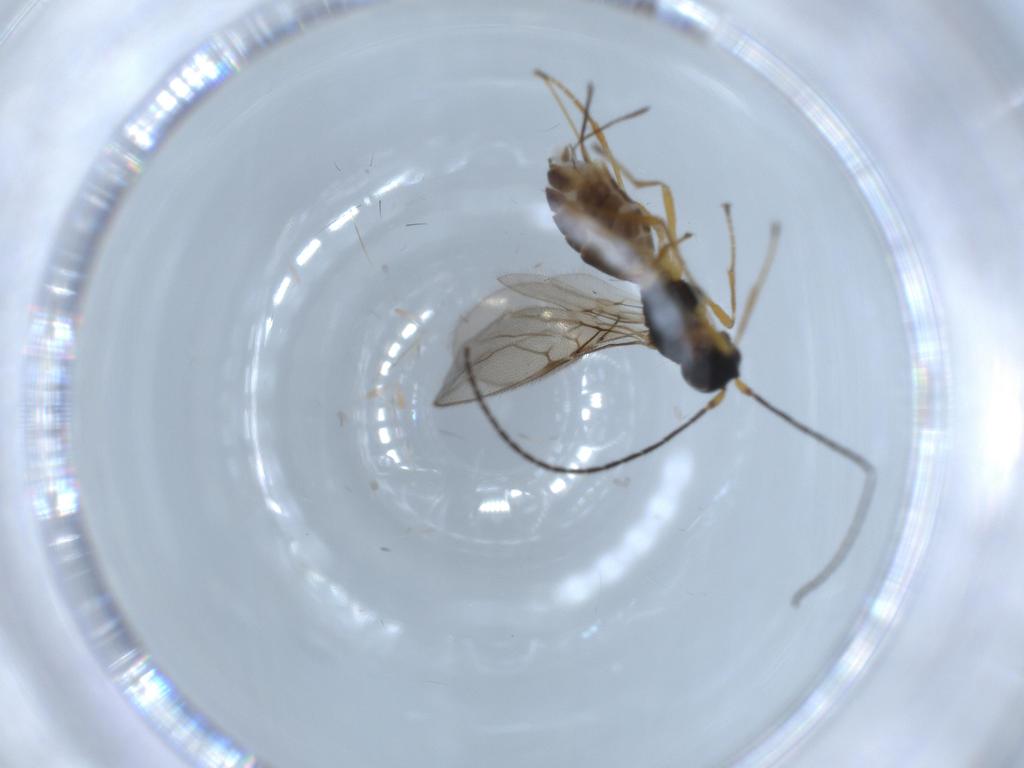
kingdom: Animalia
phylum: Arthropoda
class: Insecta
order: Hymenoptera
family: Braconidae
